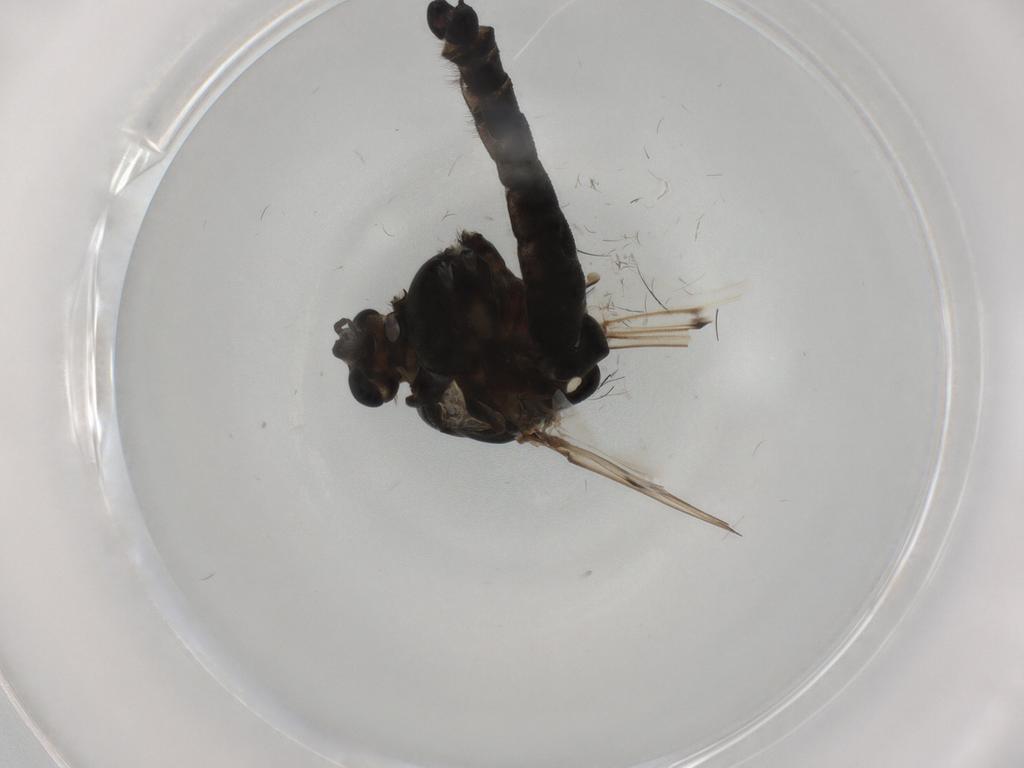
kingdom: Animalia
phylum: Arthropoda
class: Insecta
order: Diptera
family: Chironomidae
